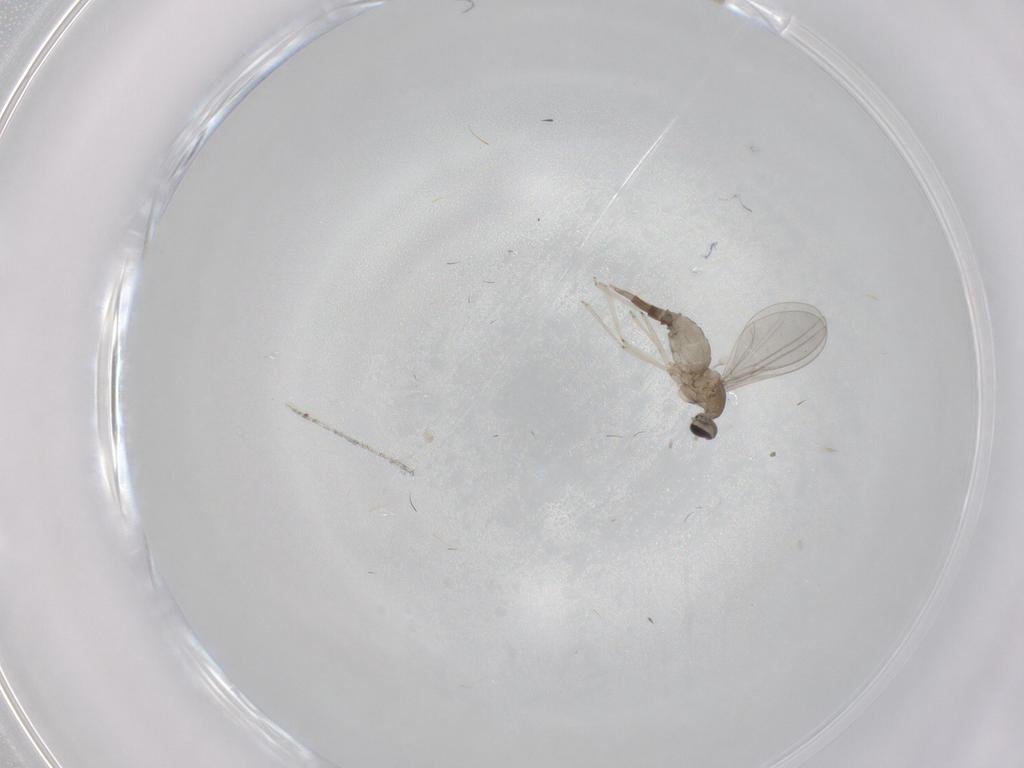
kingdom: Animalia
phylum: Arthropoda
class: Insecta
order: Diptera
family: Cecidomyiidae
